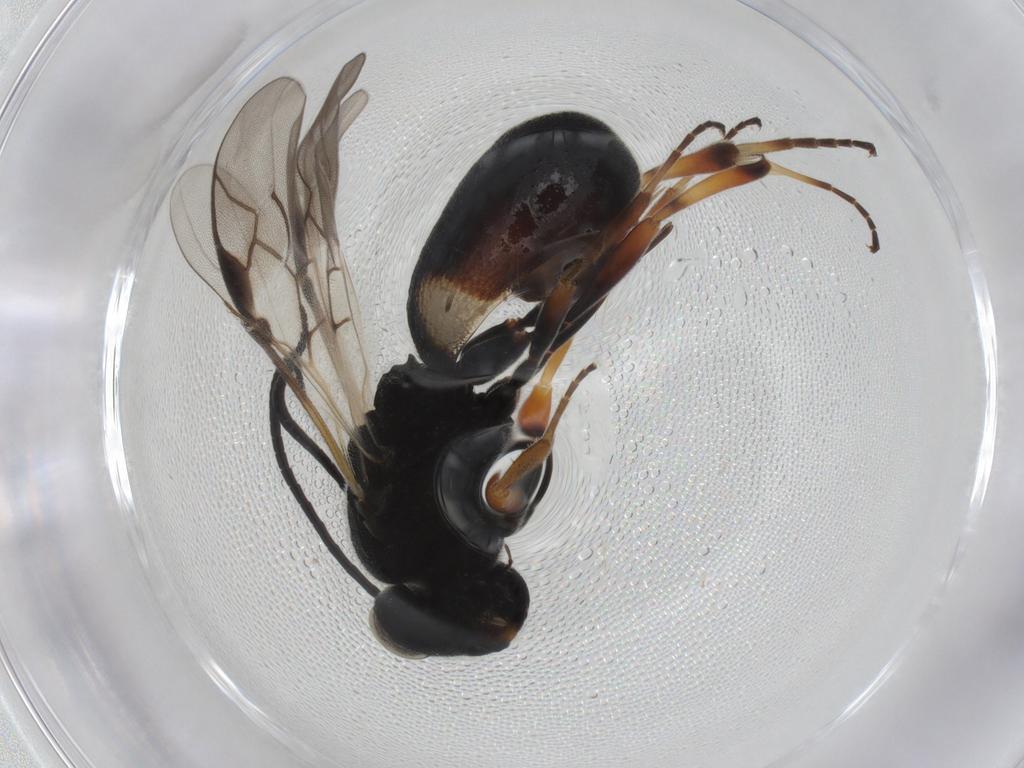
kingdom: Animalia
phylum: Arthropoda
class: Insecta
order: Hymenoptera
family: Braconidae
